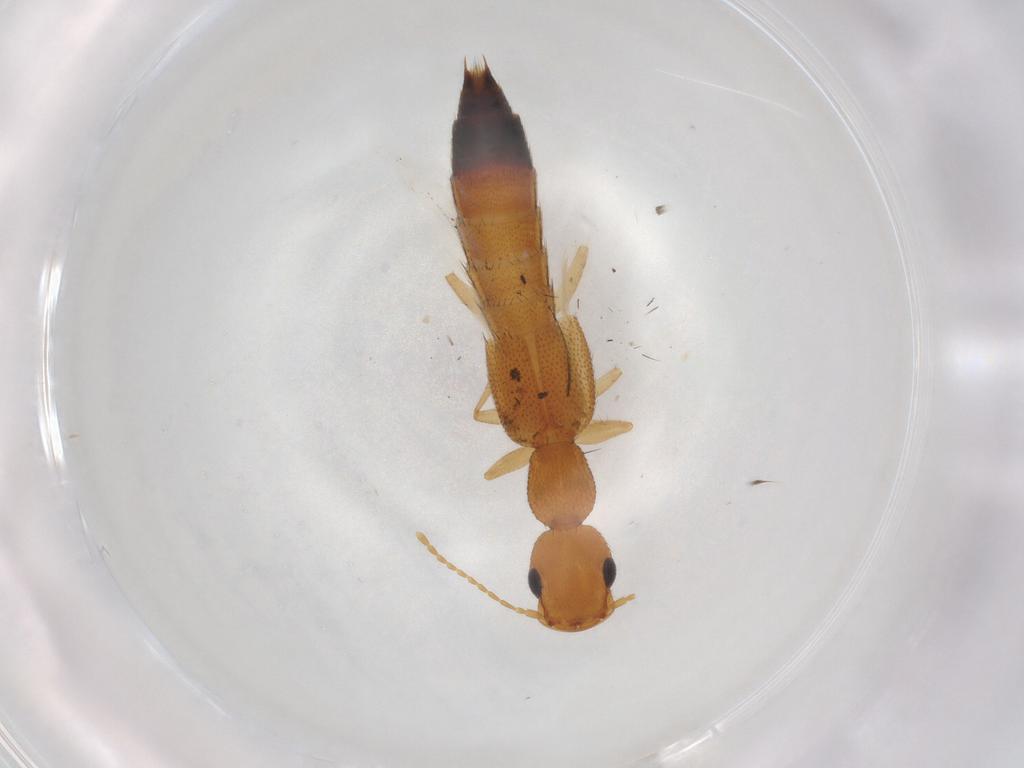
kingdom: Animalia
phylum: Arthropoda
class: Insecta
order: Coleoptera
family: Staphylinidae
